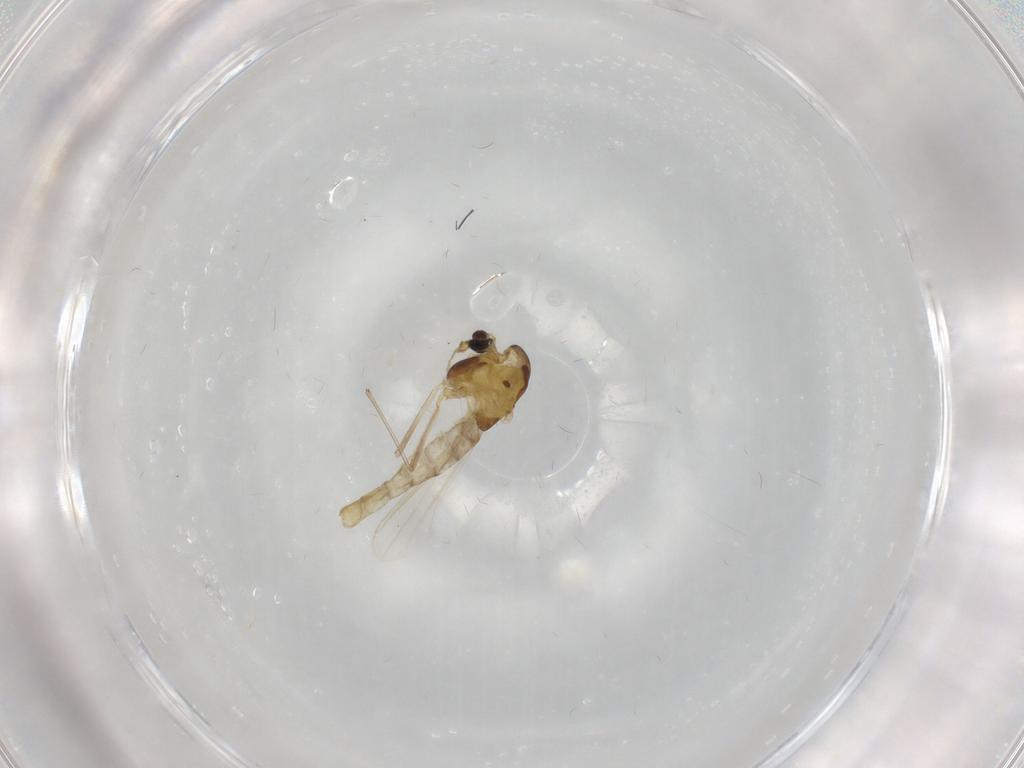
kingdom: Animalia
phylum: Arthropoda
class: Insecta
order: Diptera
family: Chironomidae
